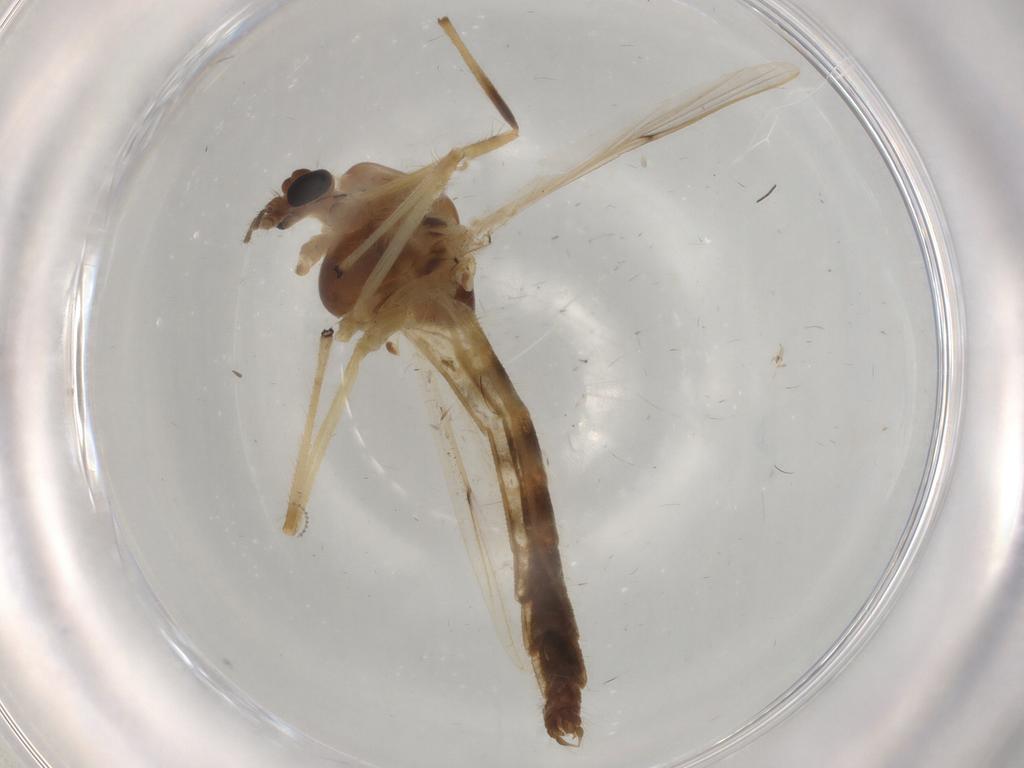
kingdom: Animalia
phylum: Arthropoda
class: Insecta
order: Diptera
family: Chironomidae
